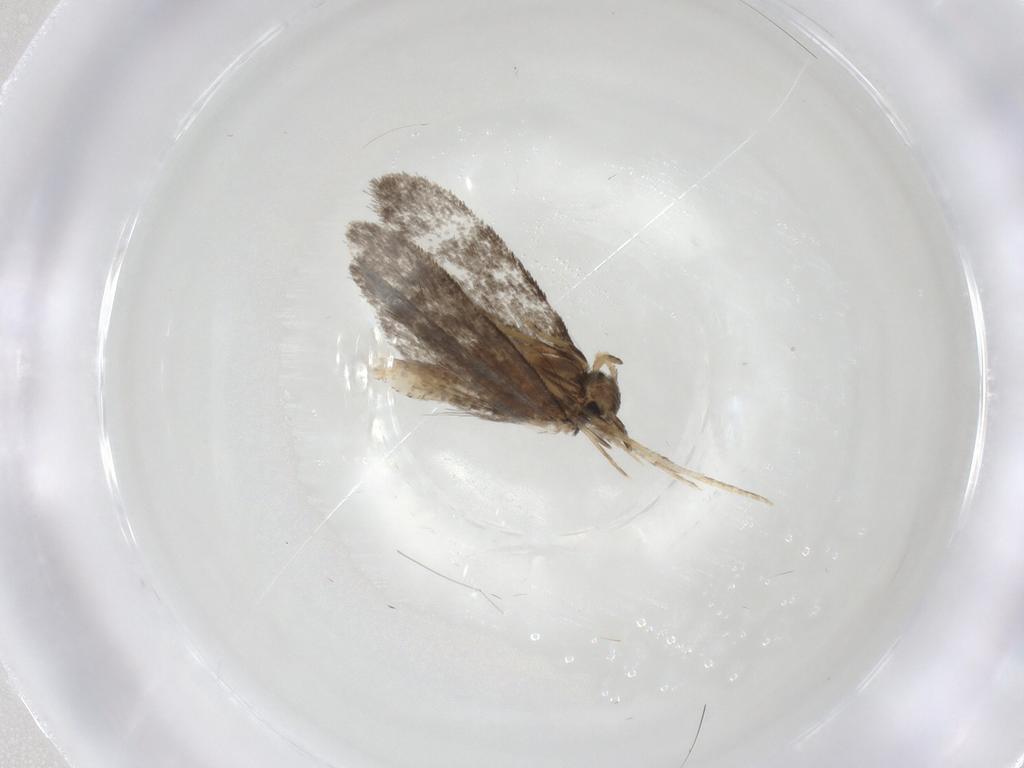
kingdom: Animalia
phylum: Arthropoda
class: Insecta
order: Lepidoptera
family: Psychidae
